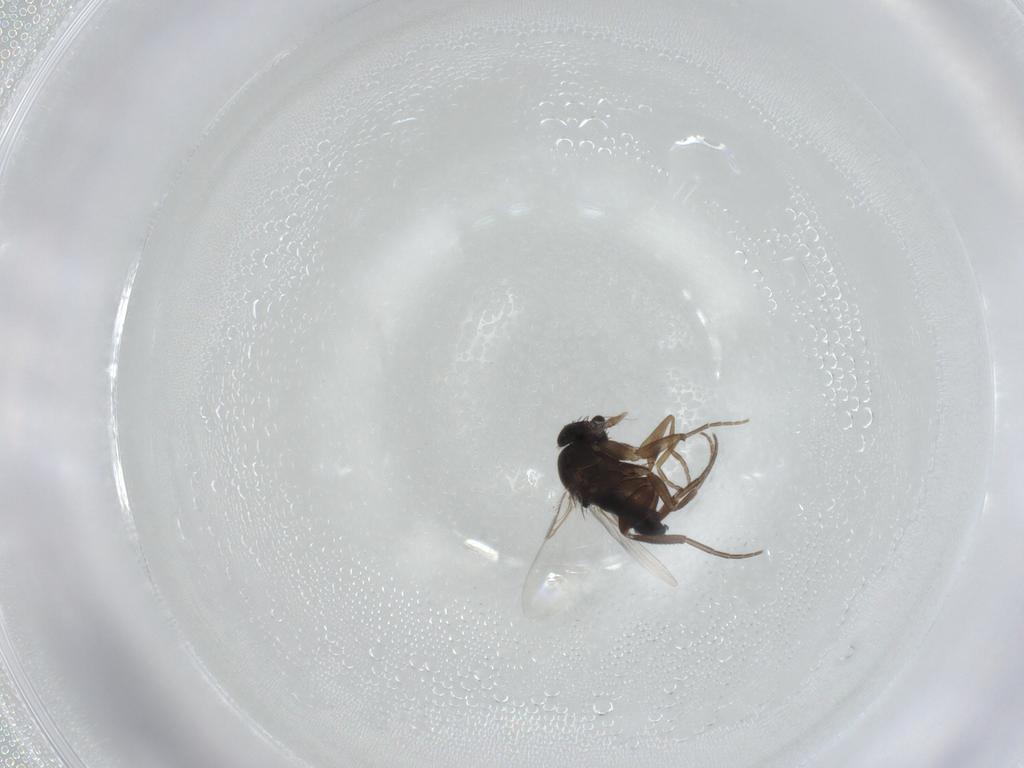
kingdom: Animalia
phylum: Arthropoda
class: Insecta
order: Diptera
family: Phoridae
